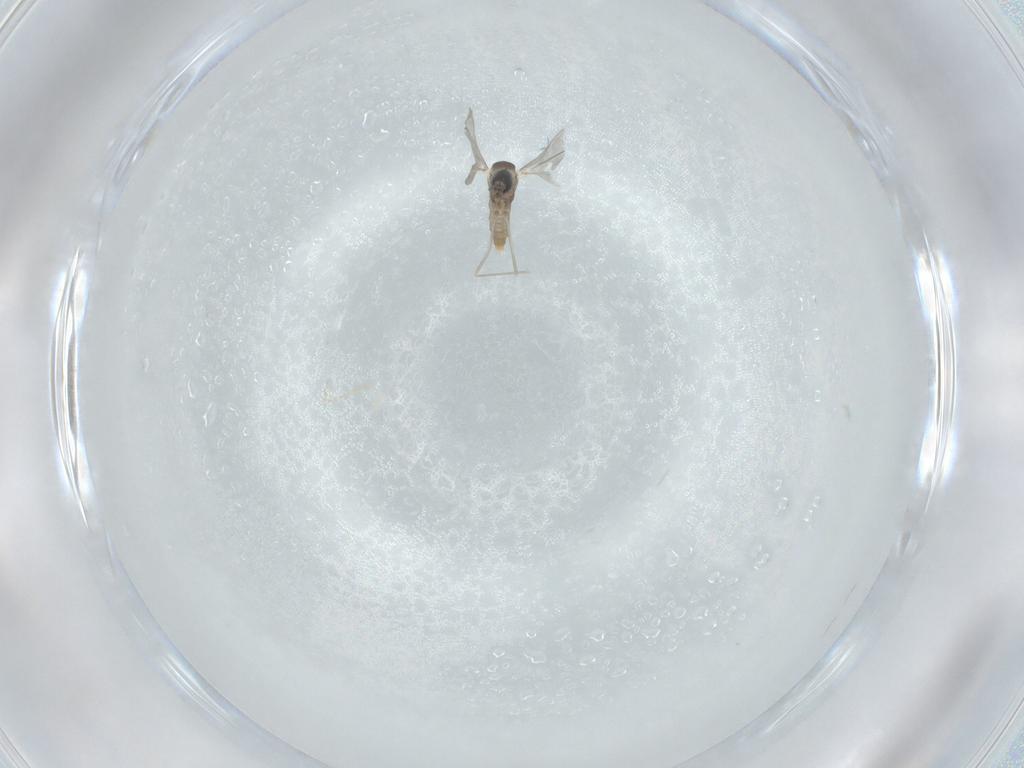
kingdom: Animalia
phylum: Arthropoda
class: Insecta
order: Diptera
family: Cecidomyiidae
